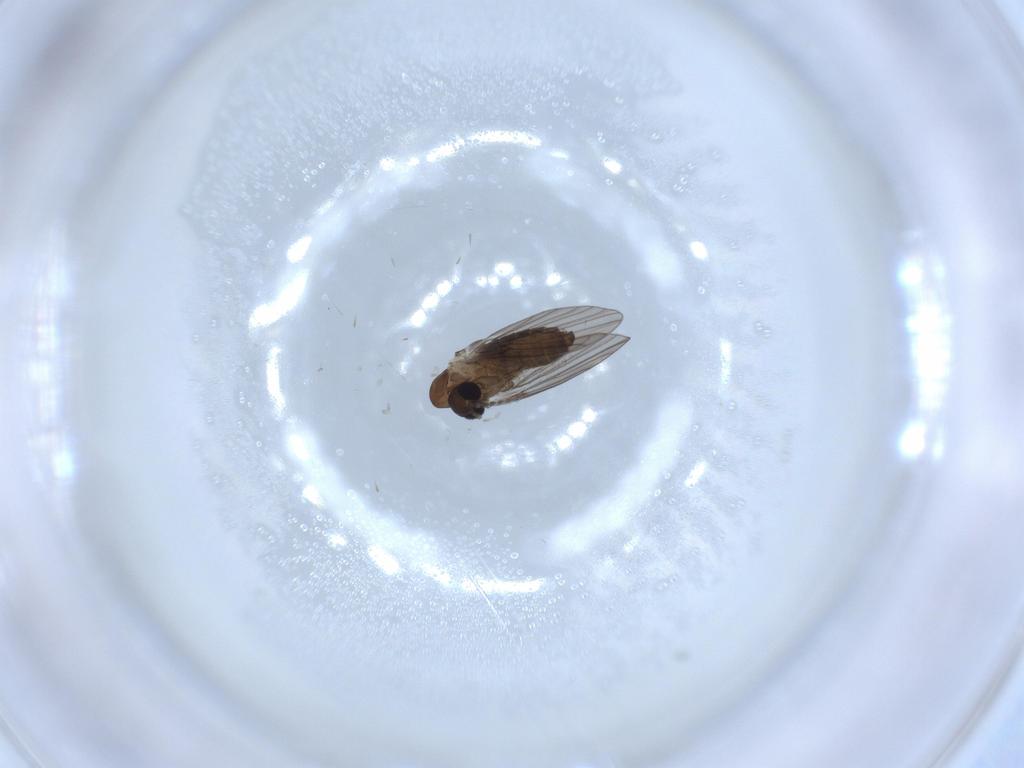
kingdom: Animalia
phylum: Arthropoda
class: Insecta
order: Diptera
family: Psychodidae
